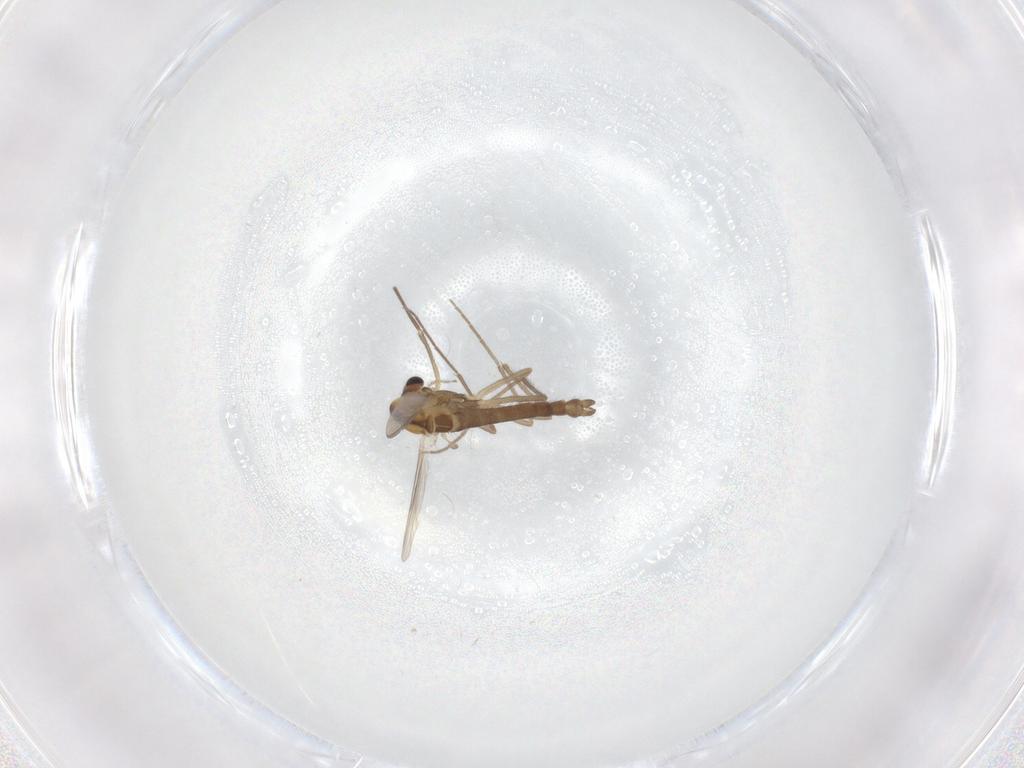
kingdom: Animalia
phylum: Arthropoda
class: Insecta
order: Diptera
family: Chironomidae
